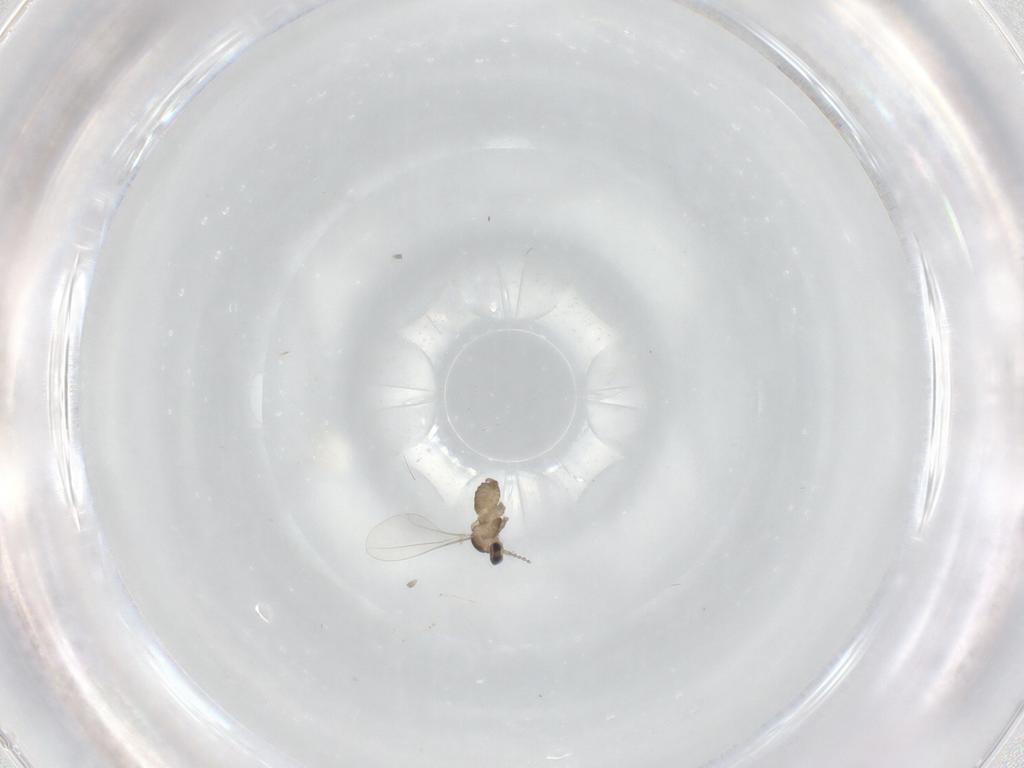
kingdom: Animalia
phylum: Arthropoda
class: Insecta
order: Diptera
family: Cecidomyiidae
